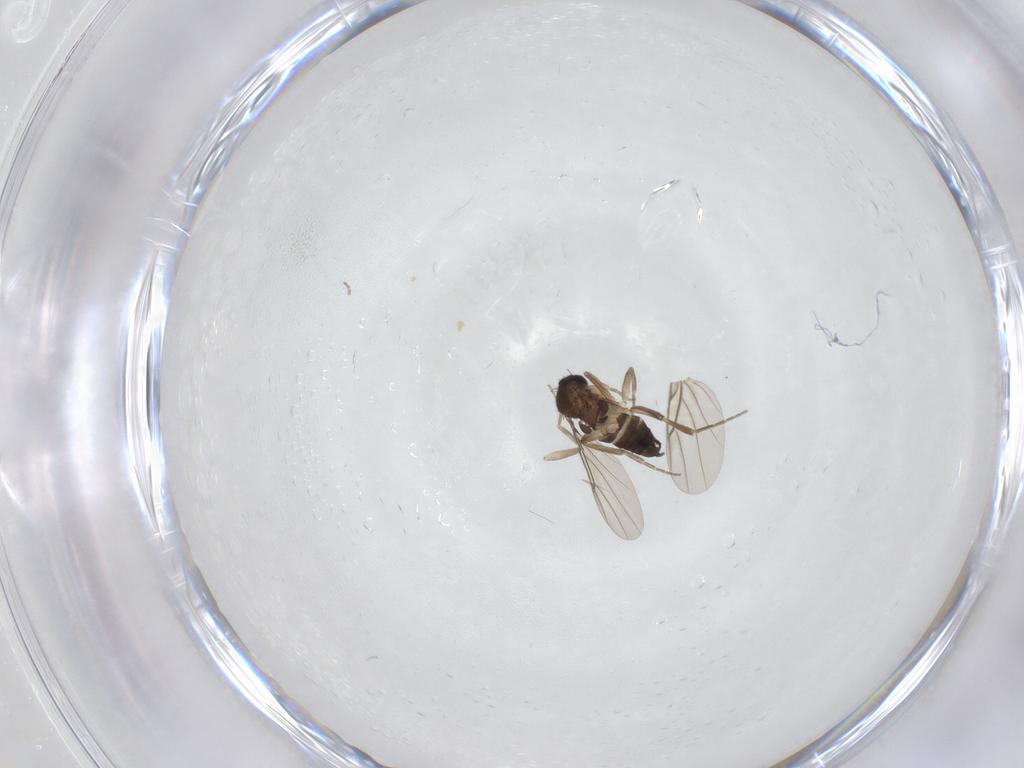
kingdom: Animalia
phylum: Arthropoda
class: Insecta
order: Diptera
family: Phoridae
